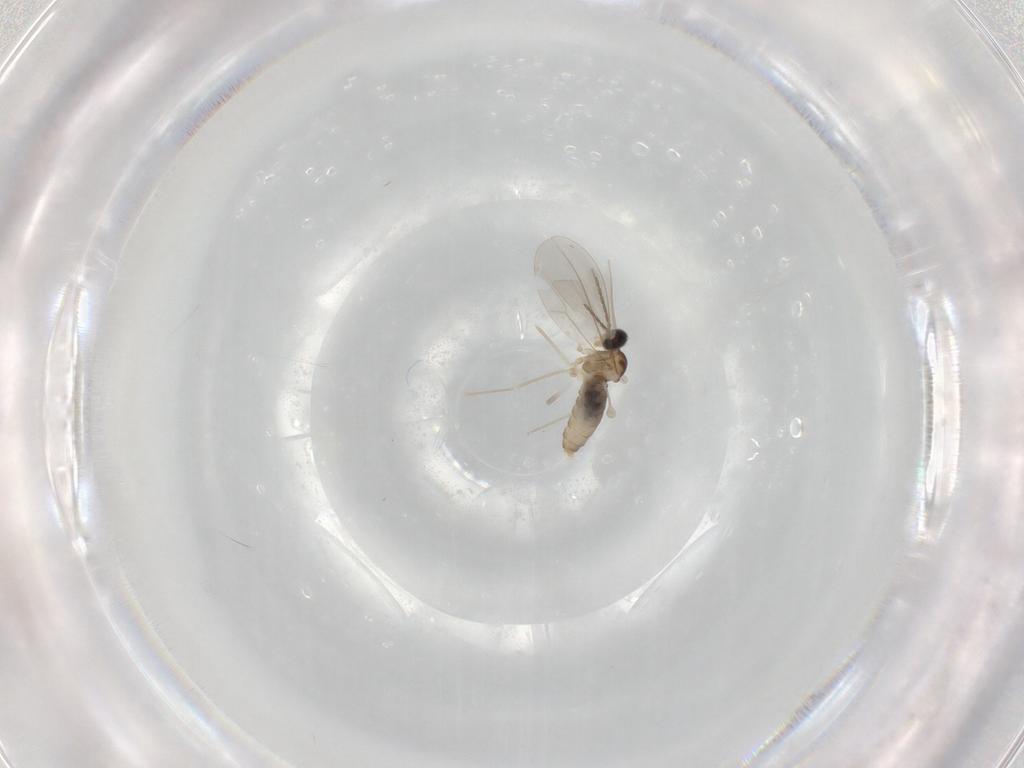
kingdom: Animalia
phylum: Arthropoda
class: Insecta
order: Diptera
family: Cecidomyiidae
